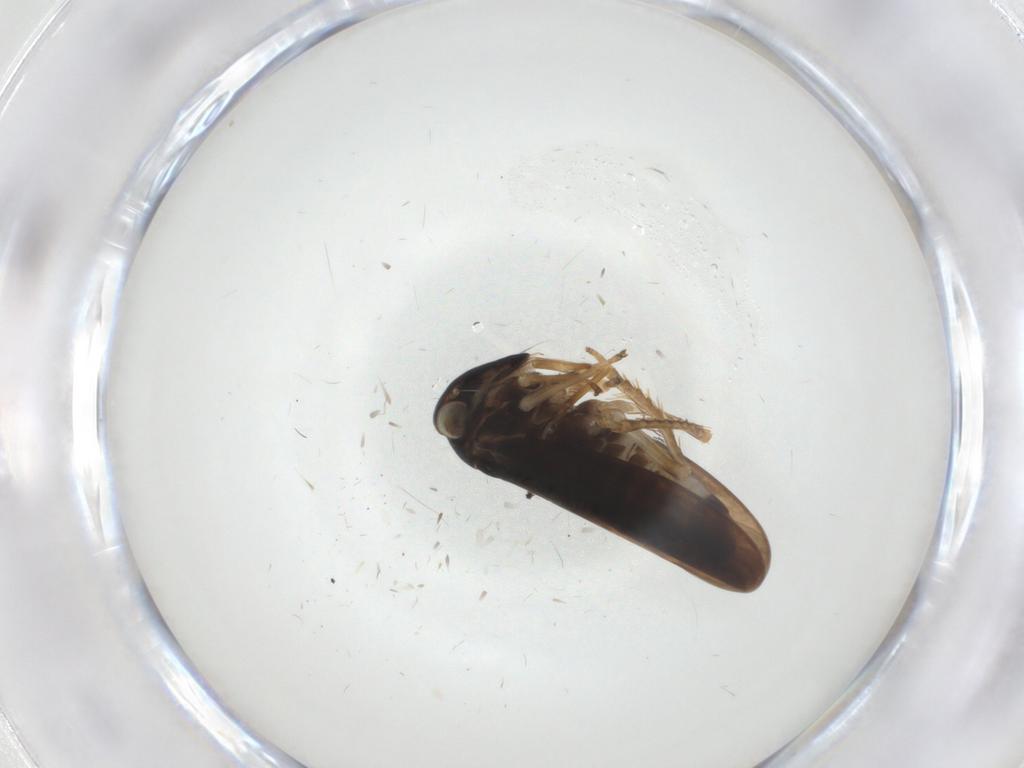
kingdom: Animalia
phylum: Arthropoda
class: Insecta
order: Hemiptera
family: Cicadellidae
